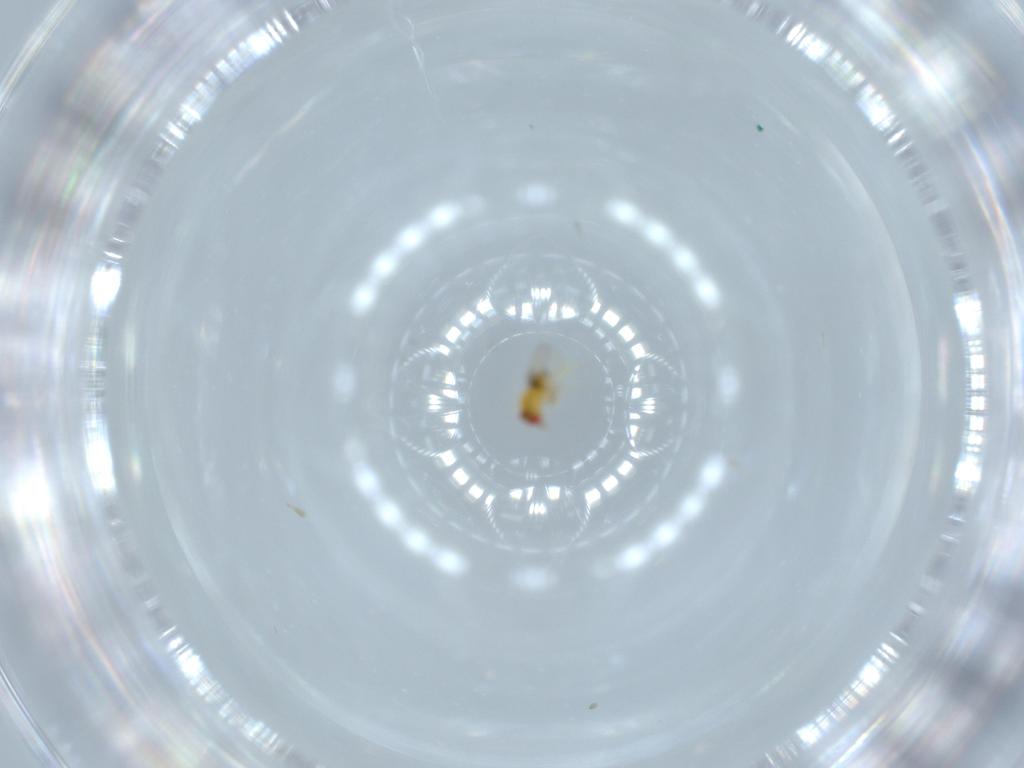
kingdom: Animalia
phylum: Arthropoda
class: Insecta
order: Hymenoptera
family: Trichogrammatidae
